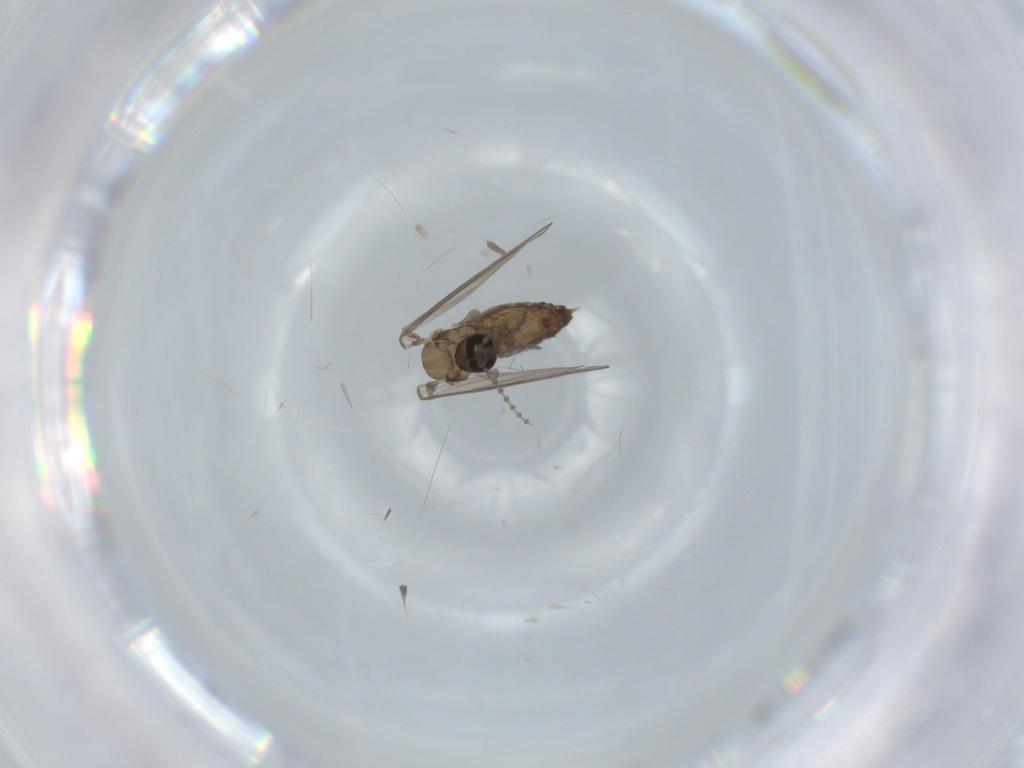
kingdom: Animalia
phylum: Arthropoda
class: Insecta
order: Diptera
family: Psychodidae
